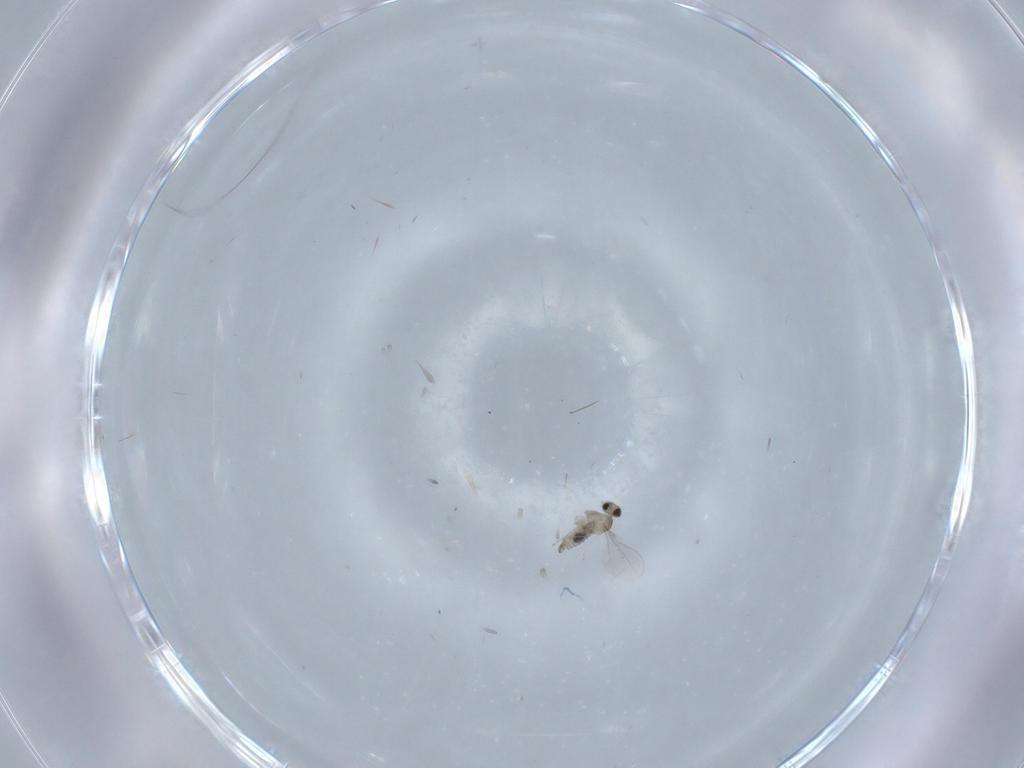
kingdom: Animalia
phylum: Arthropoda
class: Insecta
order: Diptera
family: Cecidomyiidae
